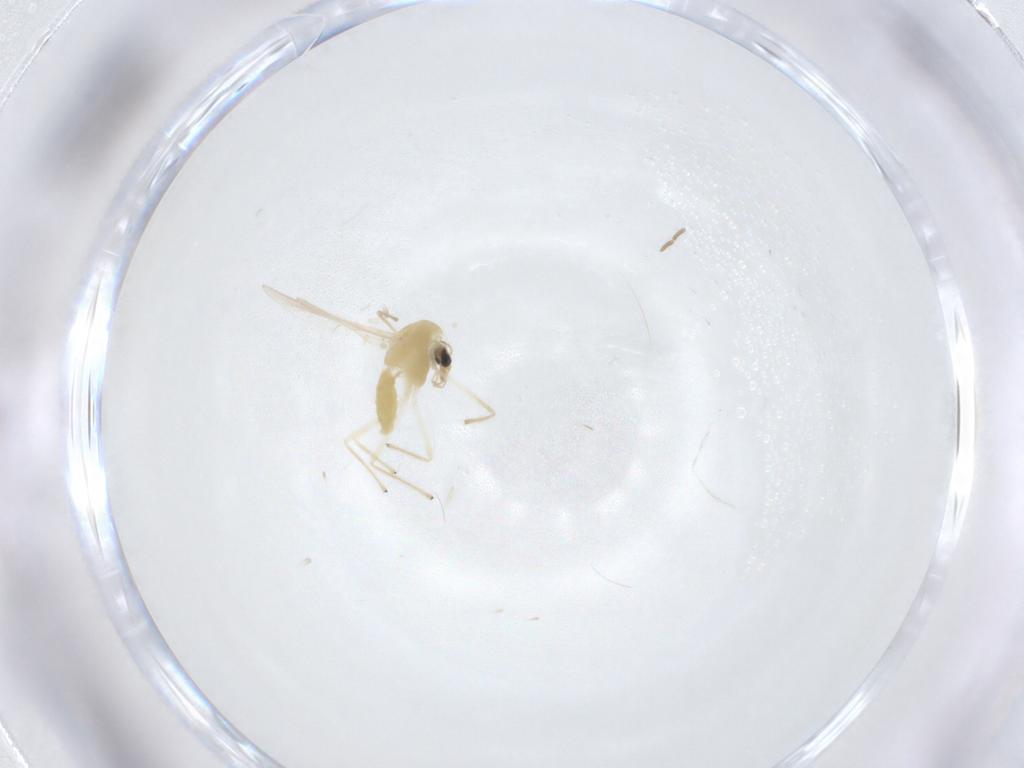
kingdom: Animalia
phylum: Arthropoda
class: Insecta
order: Diptera
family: Chironomidae
